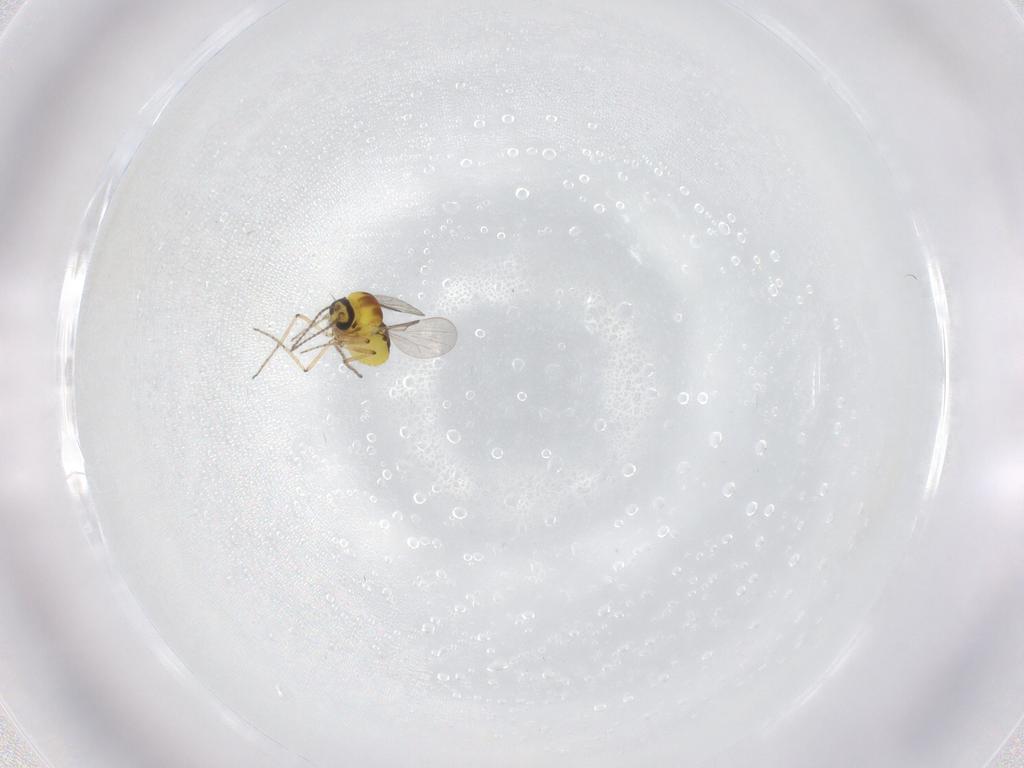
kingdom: Animalia
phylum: Arthropoda
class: Insecta
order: Diptera
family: Ceratopogonidae
